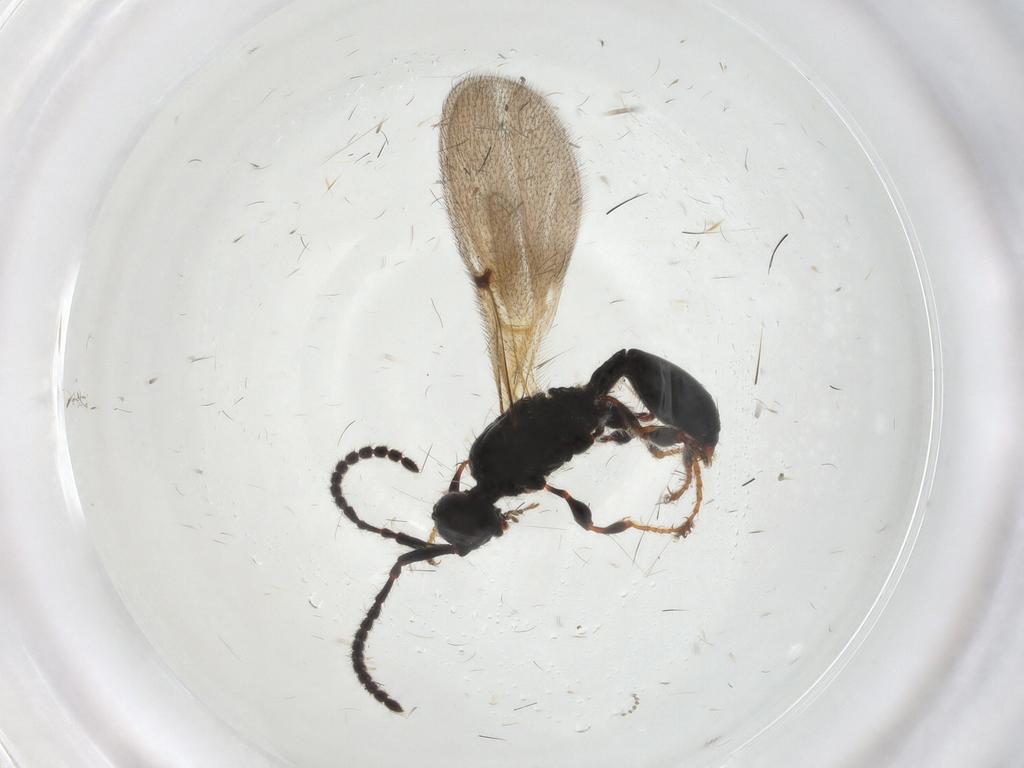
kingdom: Animalia
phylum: Arthropoda
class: Insecta
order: Hymenoptera
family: Diapriidae
